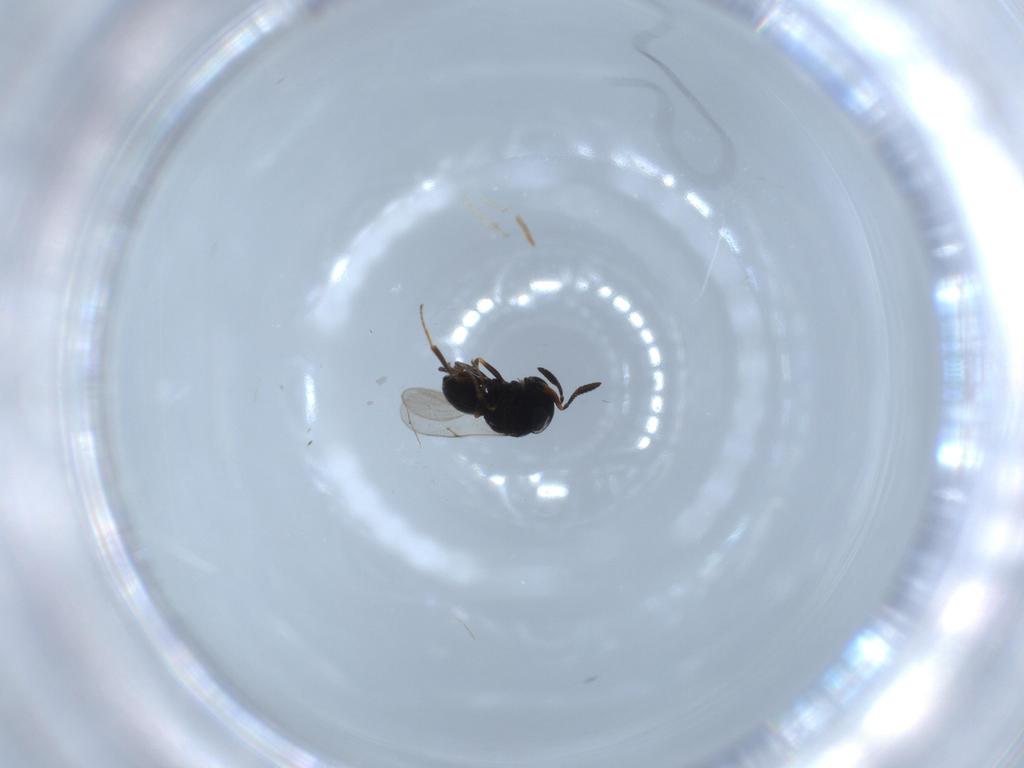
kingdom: Animalia
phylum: Arthropoda
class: Insecta
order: Hymenoptera
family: Scelionidae
